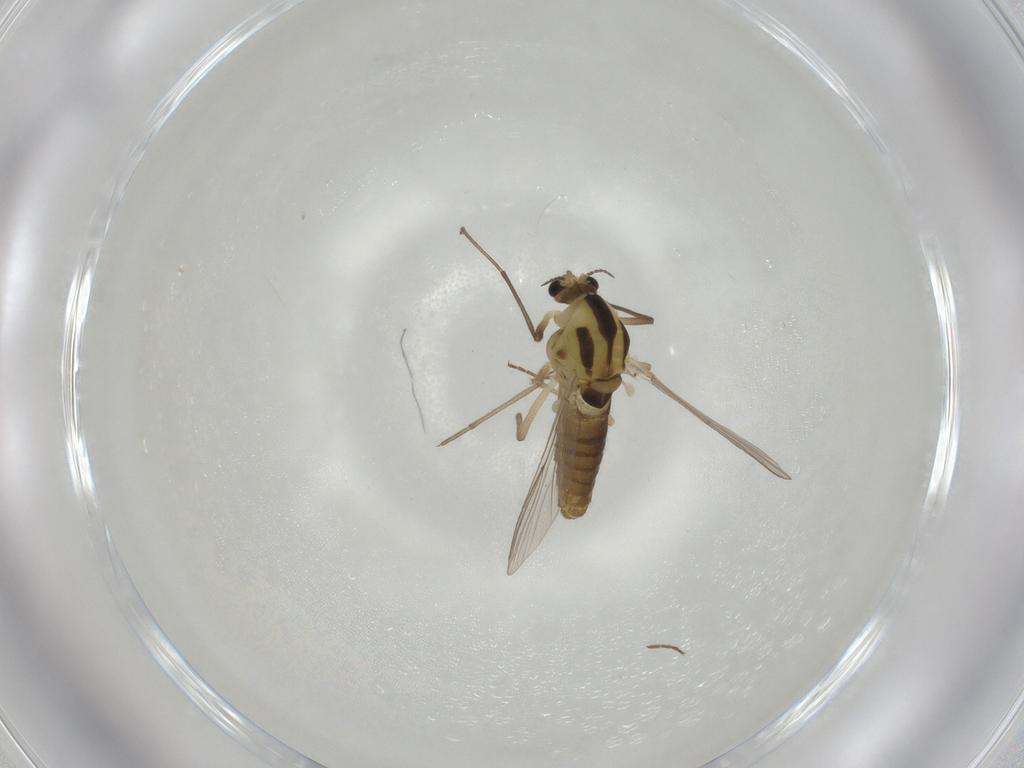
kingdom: Animalia
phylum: Arthropoda
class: Insecta
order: Diptera
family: Chironomidae
